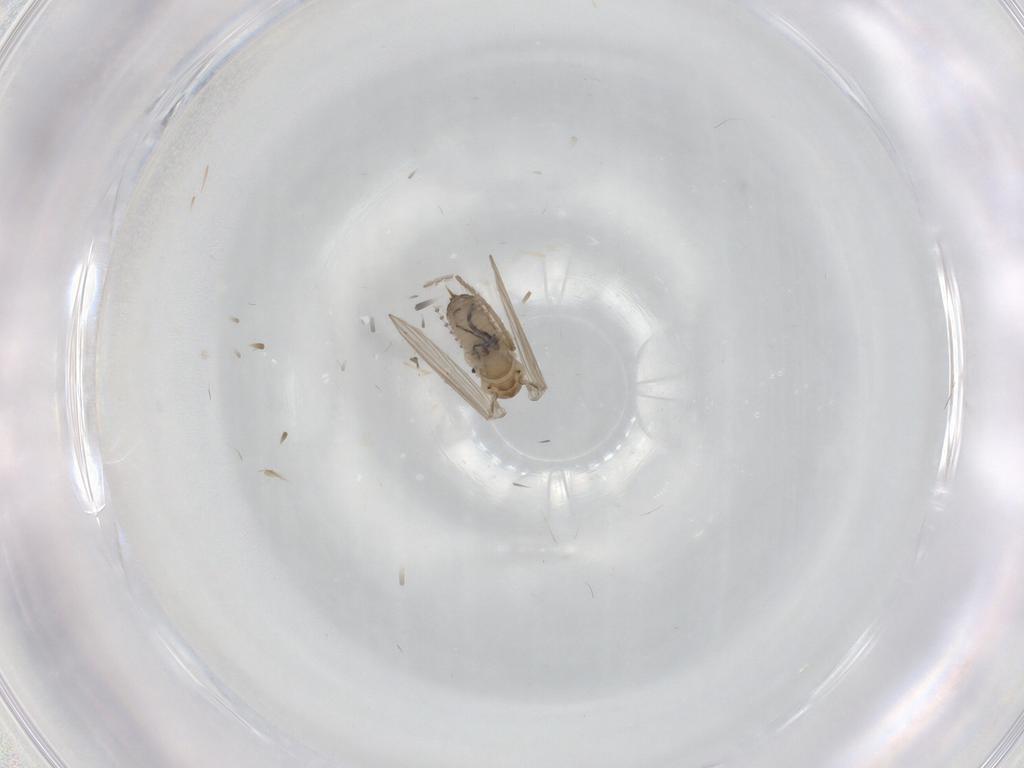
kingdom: Animalia
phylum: Arthropoda
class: Insecta
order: Diptera
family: Psychodidae
